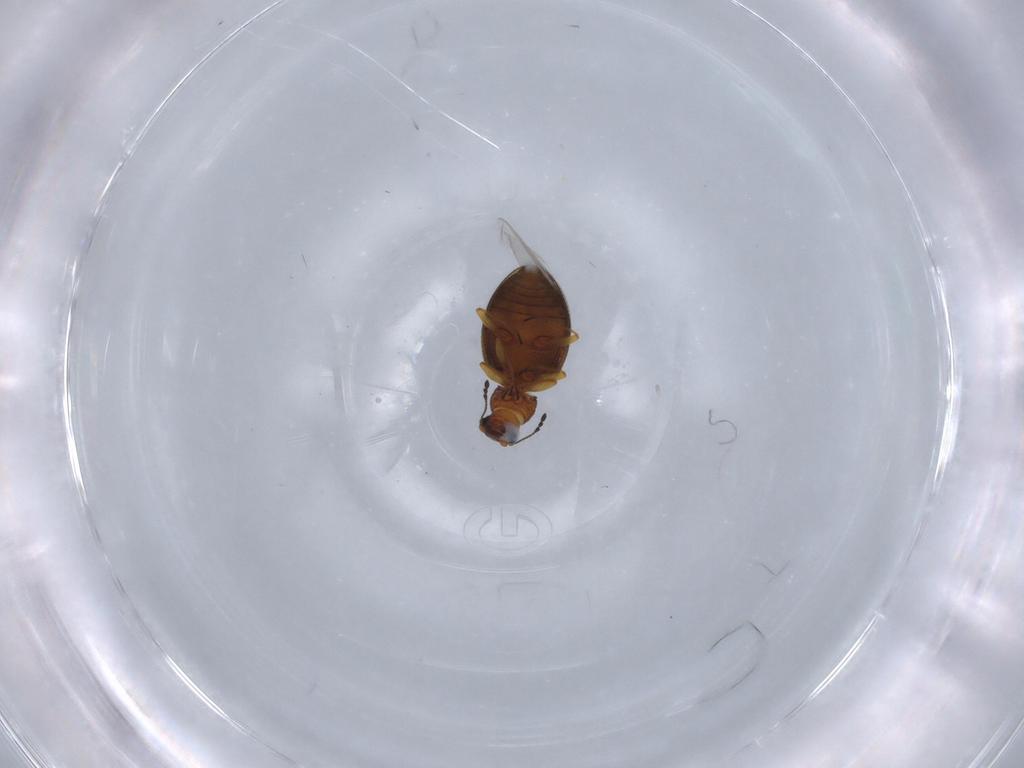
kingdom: Animalia
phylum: Arthropoda
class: Insecta
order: Coleoptera
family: Latridiidae
